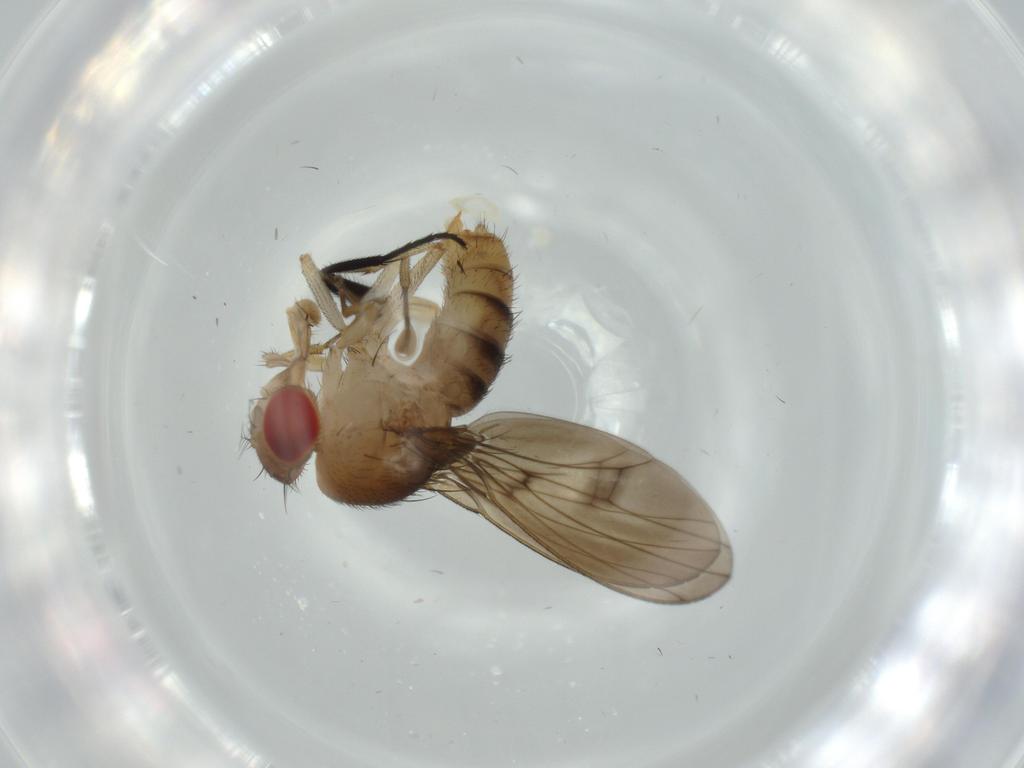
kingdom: Animalia
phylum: Arthropoda
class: Insecta
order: Diptera
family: Drosophilidae
